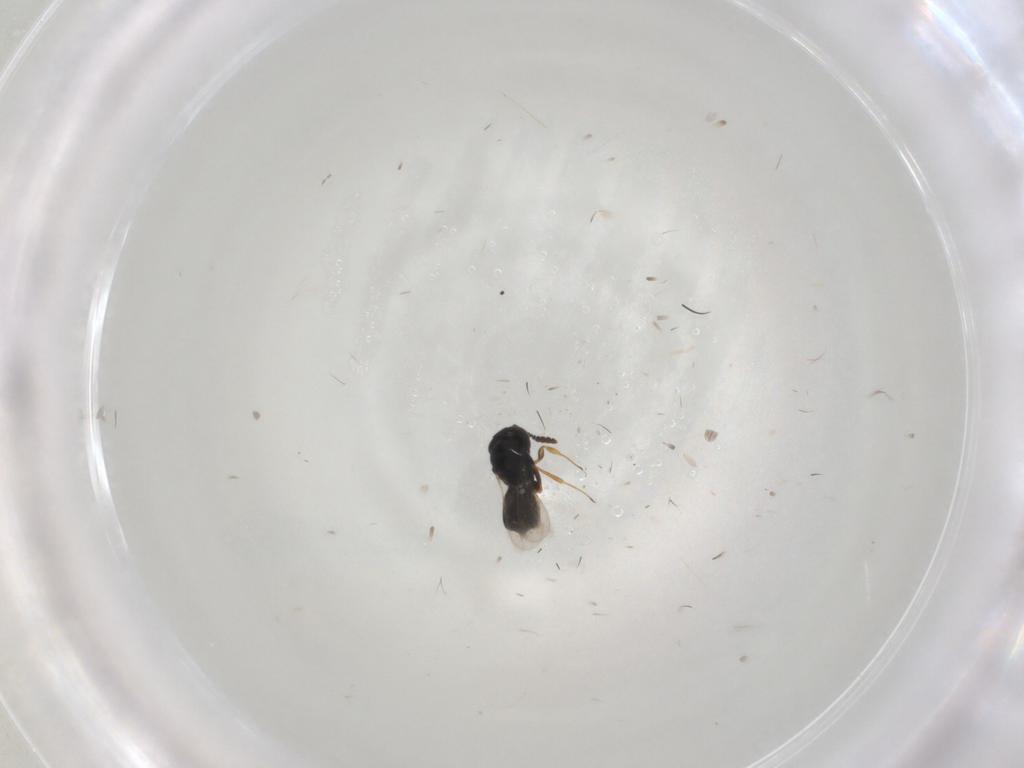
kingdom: Animalia
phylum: Arthropoda
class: Insecta
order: Hymenoptera
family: Scelionidae
